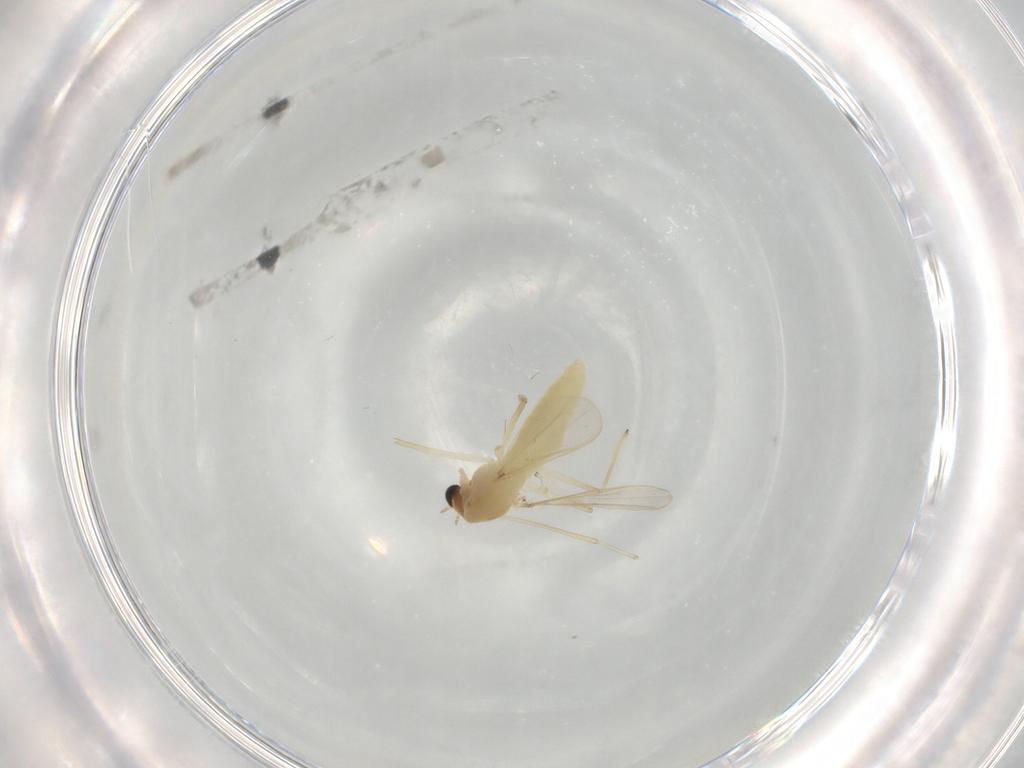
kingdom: Animalia
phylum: Arthropoda
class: Insecta
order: Diptera
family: Chironomidae
